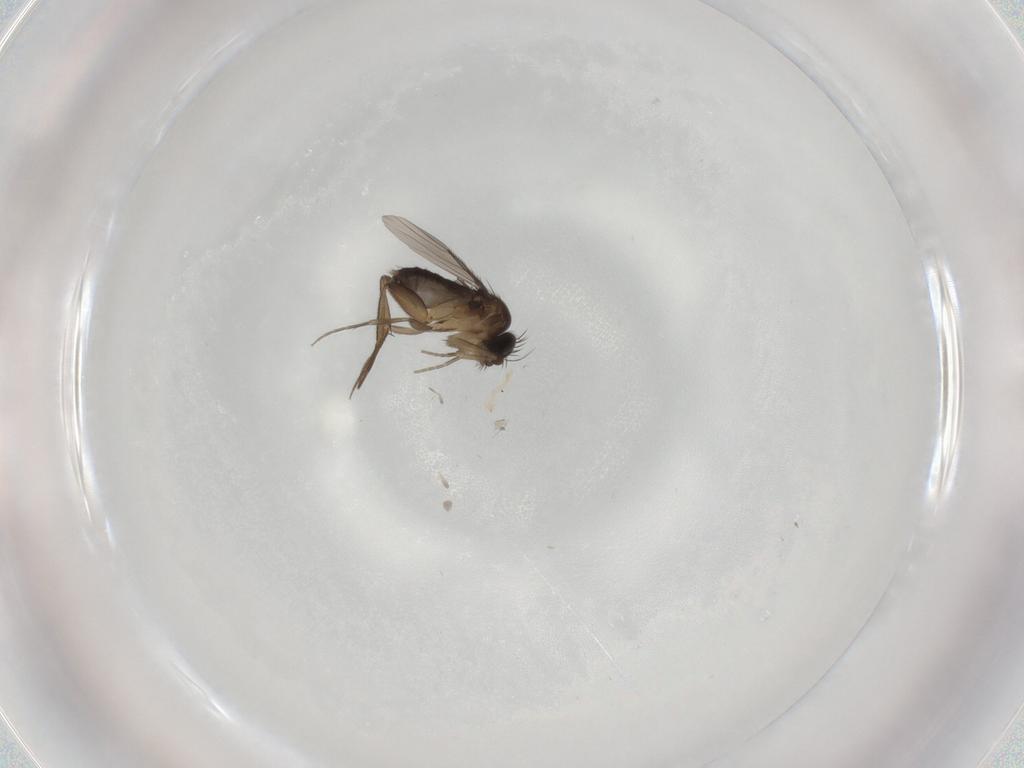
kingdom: Animalia
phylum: Arthropoda
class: Insecta
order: Diptera
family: Phoridae
